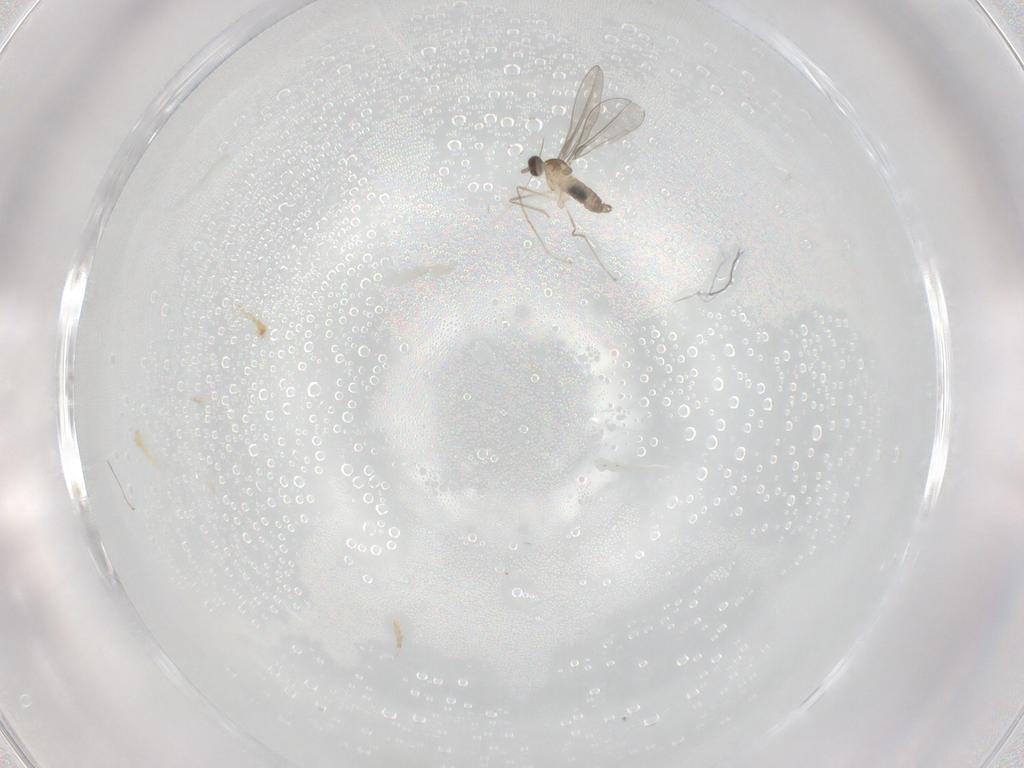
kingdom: Animalia
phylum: Arthropoda
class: Insecta
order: Diptera
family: Cecidomyiidae
